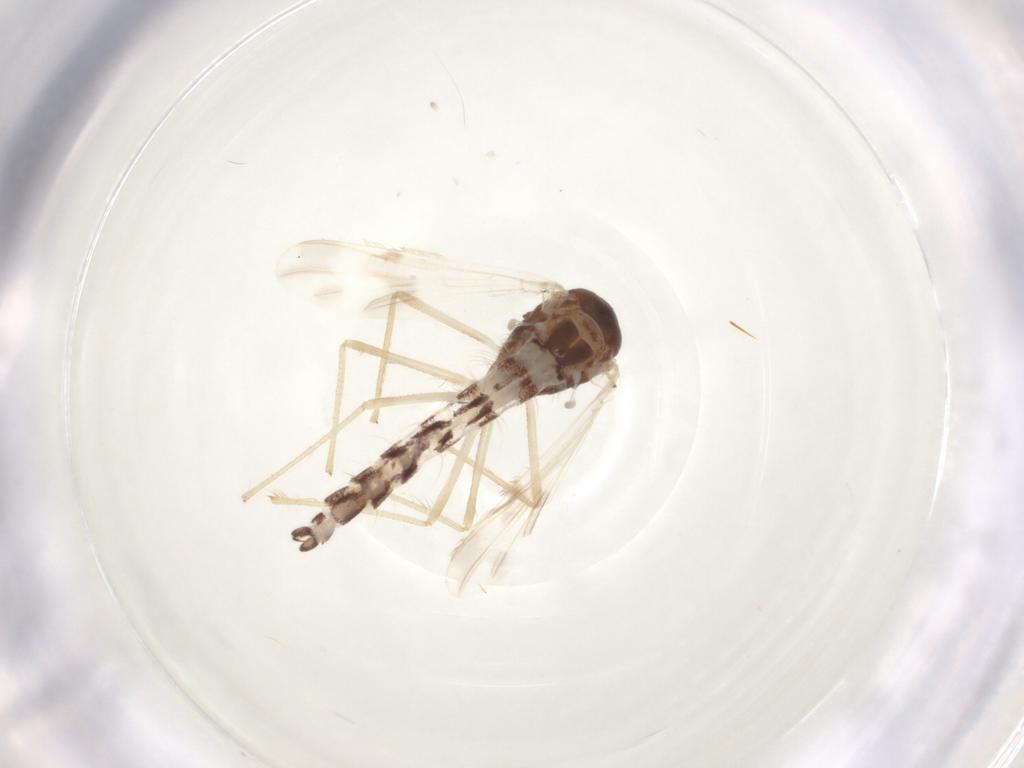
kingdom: Animalia
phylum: Arthropoda
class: Insecta
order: Diptera
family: Chironomidae
